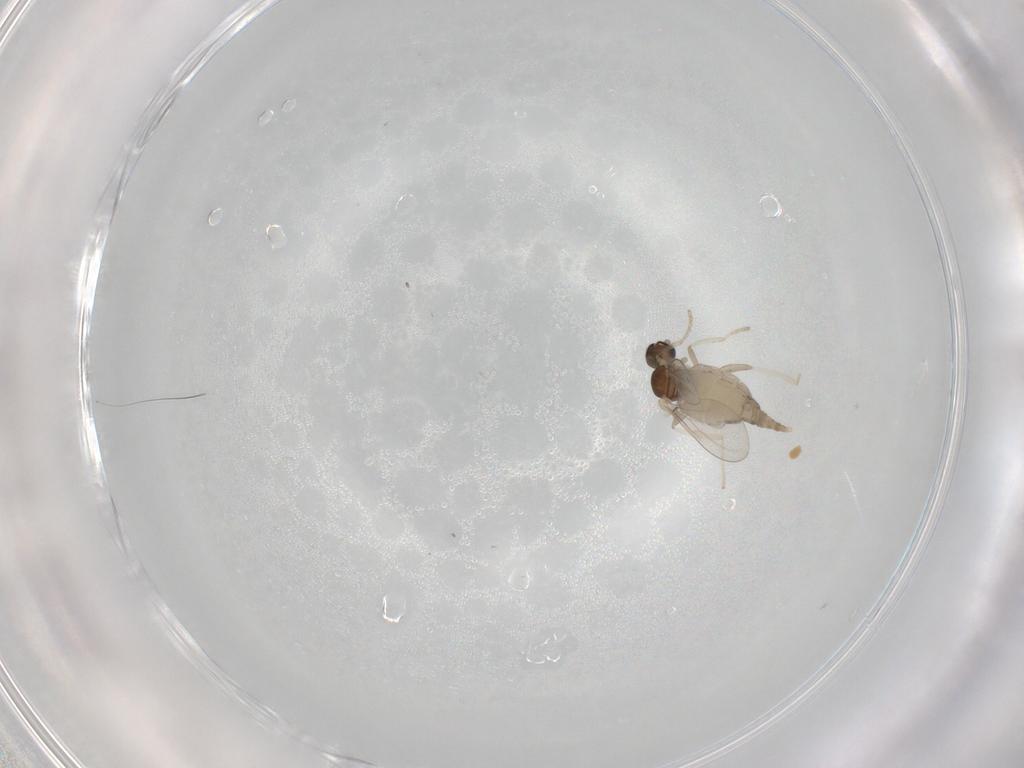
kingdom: Animalia
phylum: Arthropoda
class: Insecta
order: Diptera
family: Cecidomyiidae
